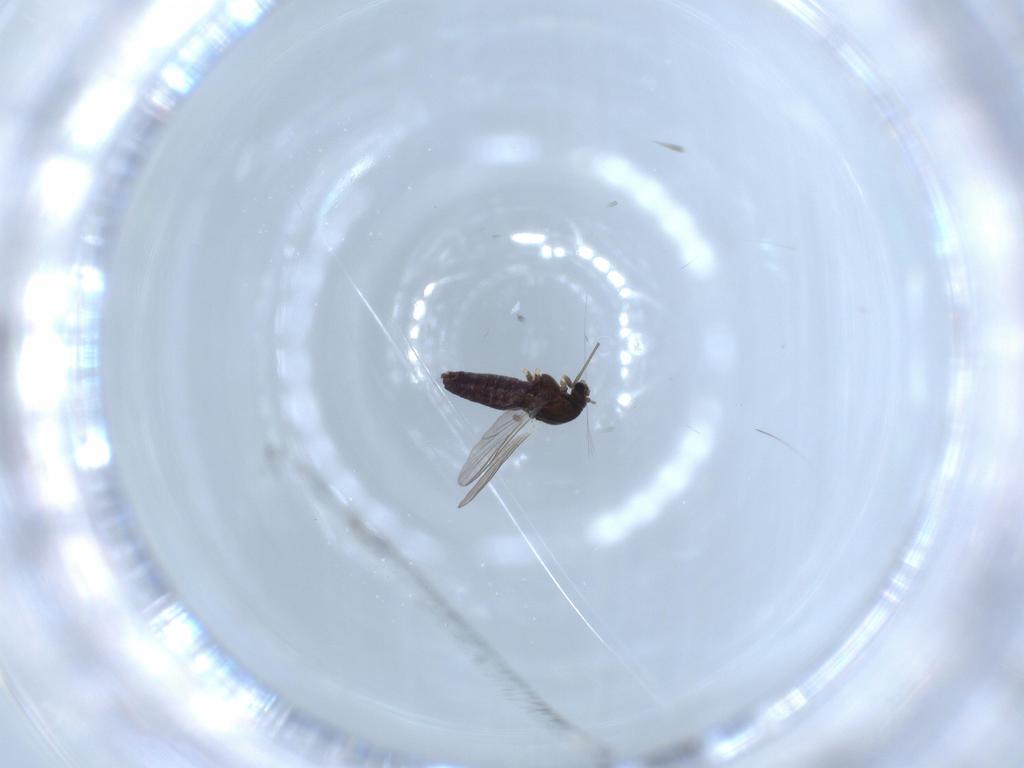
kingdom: Animalia
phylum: Arthropoda
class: Insecta
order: Diptera
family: Chironomidae
